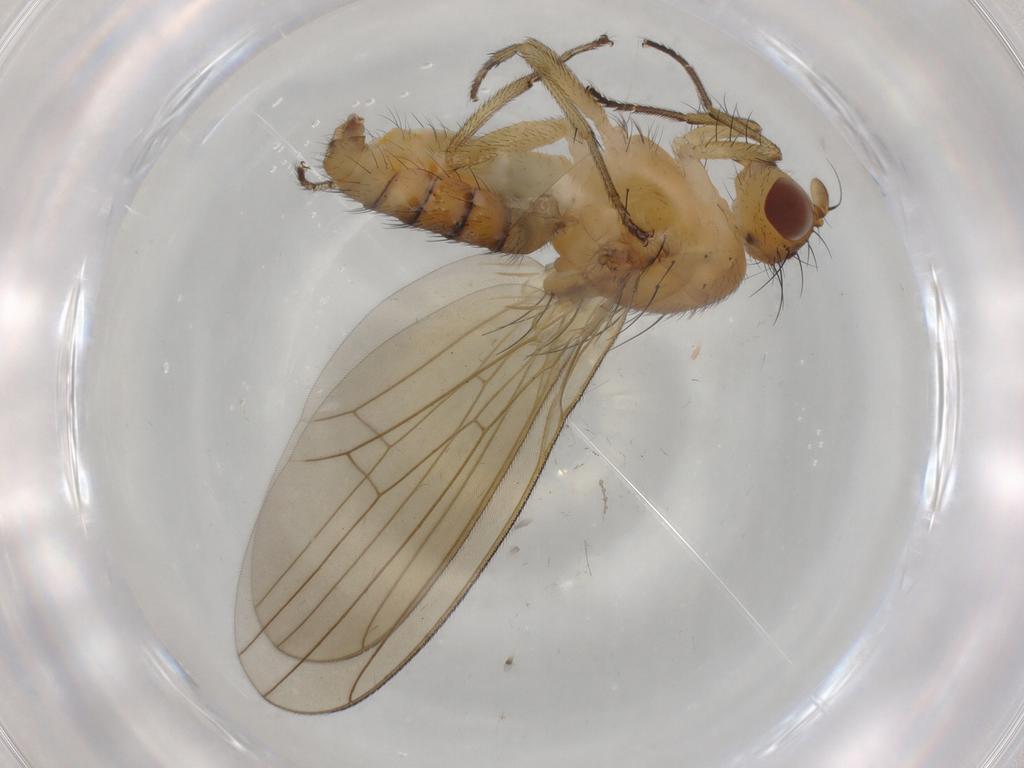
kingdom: Animalia
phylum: Arthropoda
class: Insecta
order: Diptera
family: Cecidomyiidae
